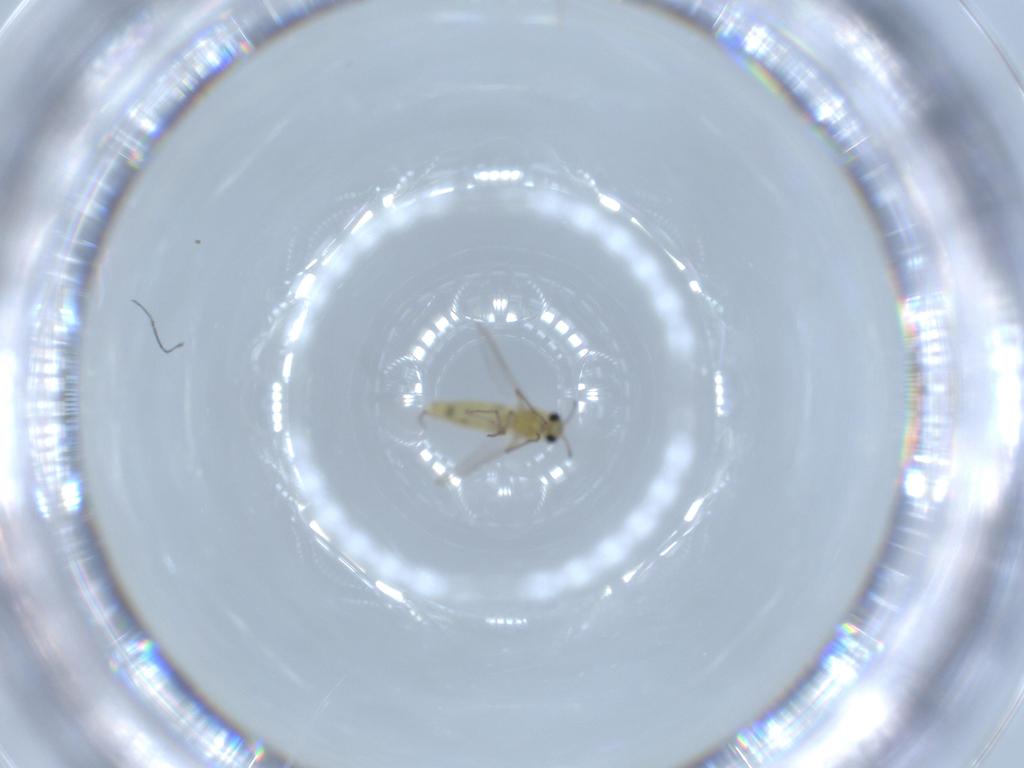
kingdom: Animalia
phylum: Arthropoda
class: Insecta
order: Diptera
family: Chironomidae
